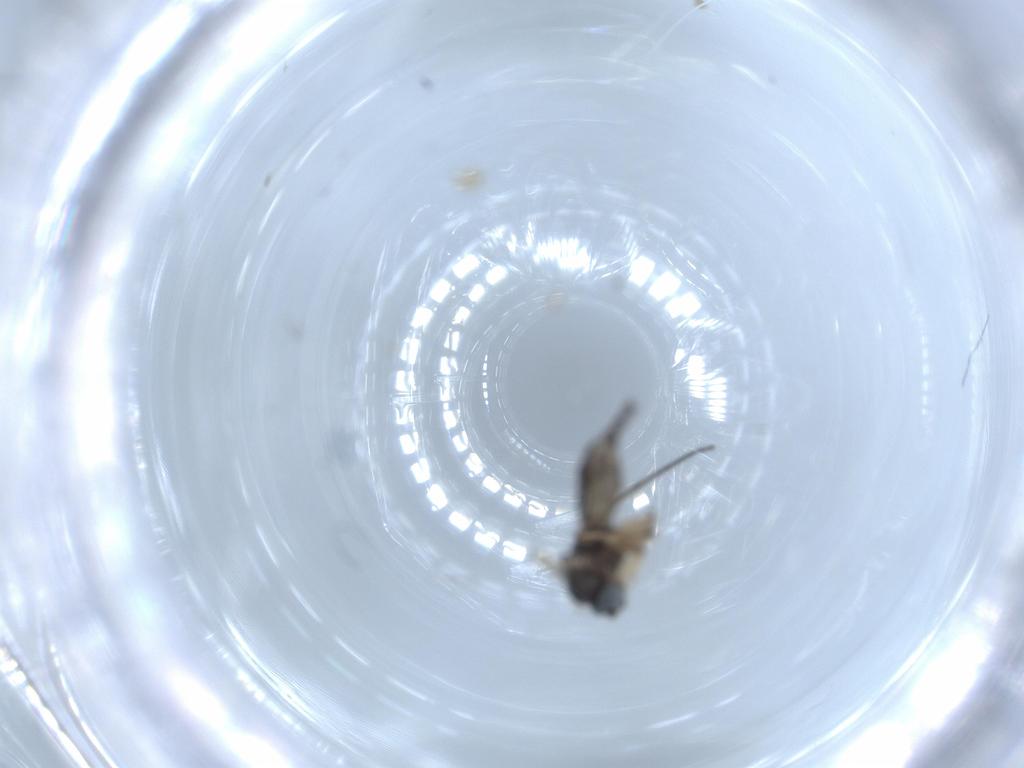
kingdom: Animalia
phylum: Arthropoda
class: Insecta
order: Diptera
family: Sciaridae
